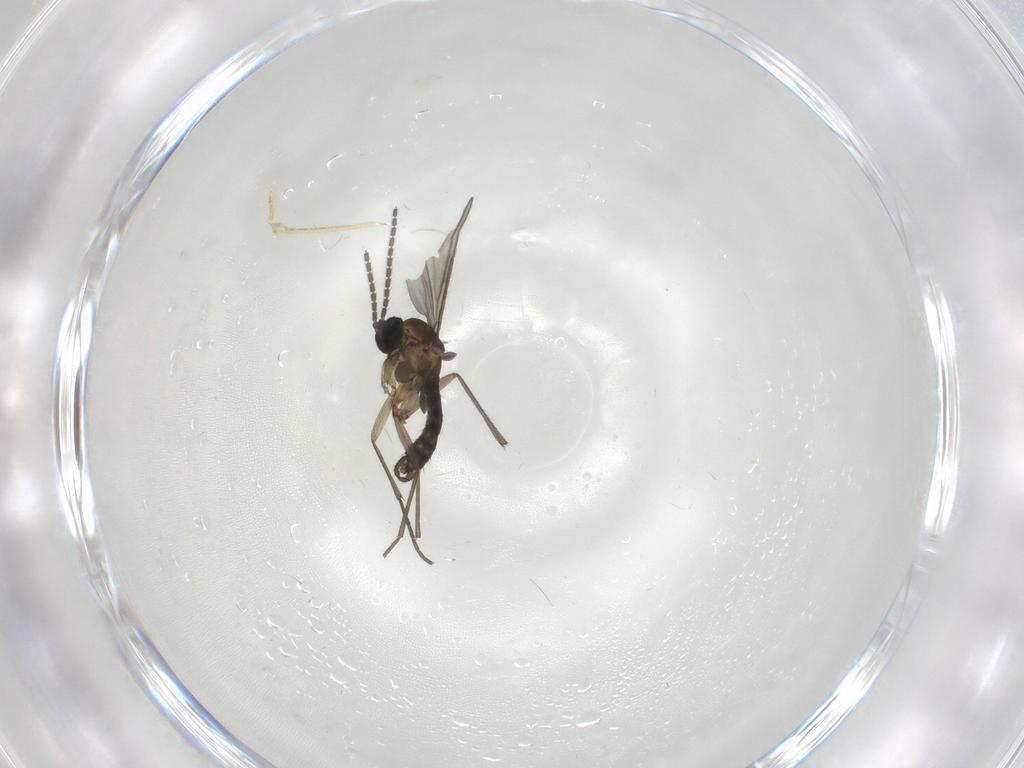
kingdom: Animalia
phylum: Arthropoda
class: Insecta
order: Diptera
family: Sciaridae
